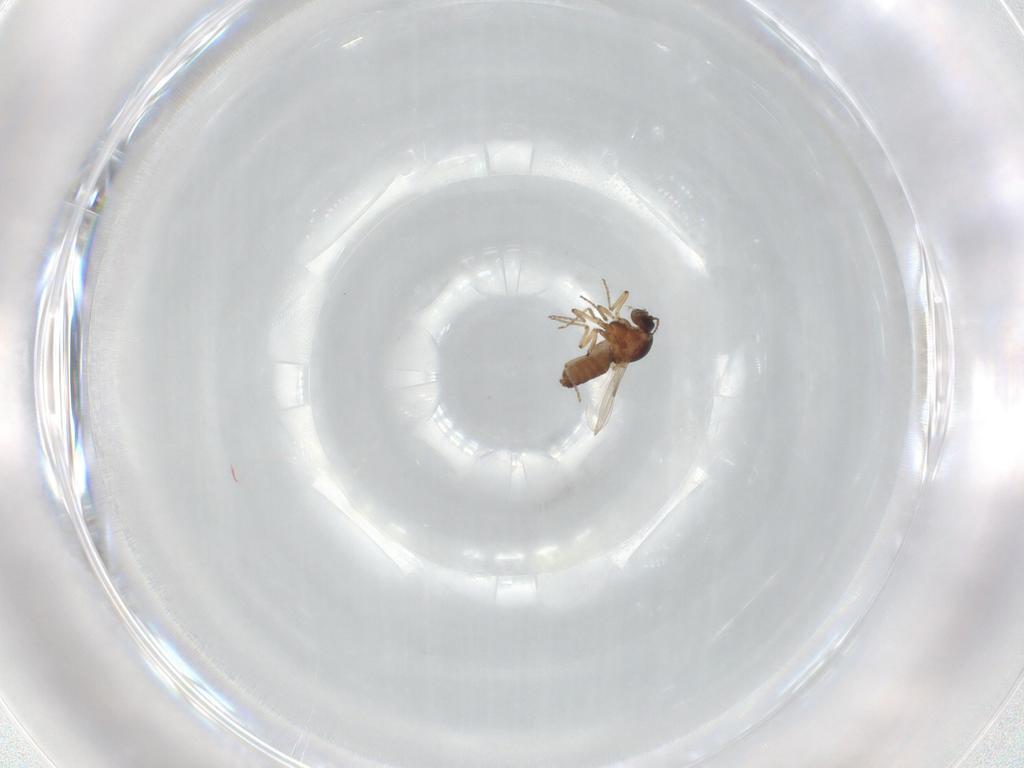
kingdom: Animalia
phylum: Arthropoda
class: Insecta
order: Diptera
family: Ceratopogonidae
